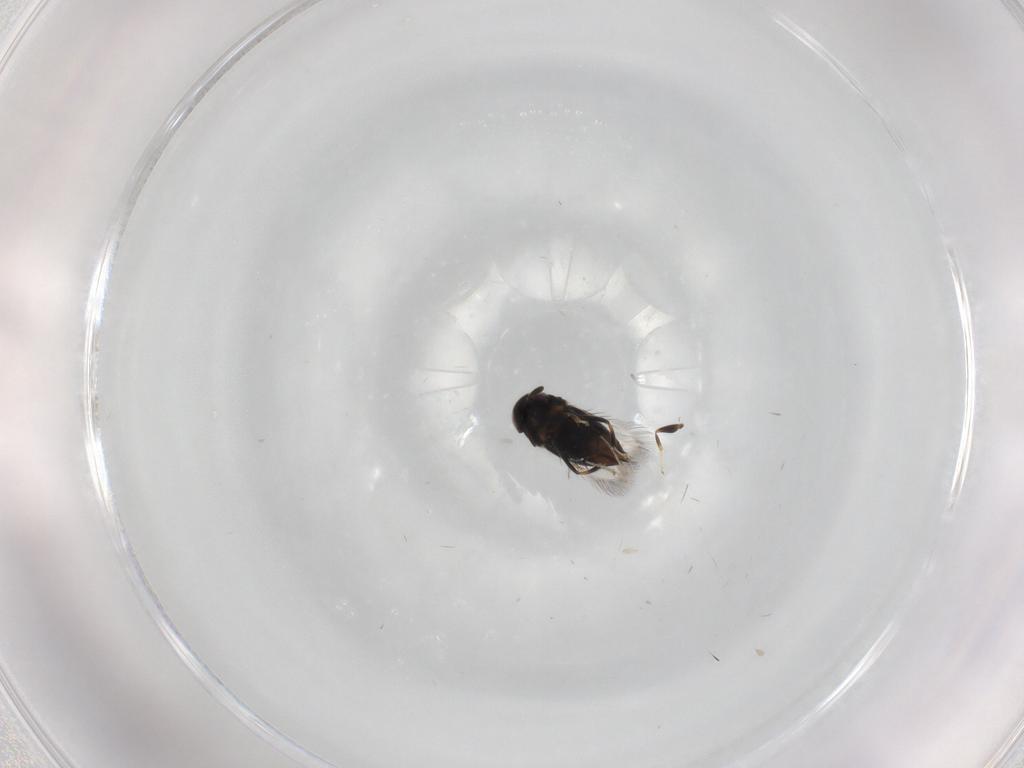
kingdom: Animalia
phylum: Arthropoda
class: Insecta
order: Hymenoptera
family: Signiphoridae
